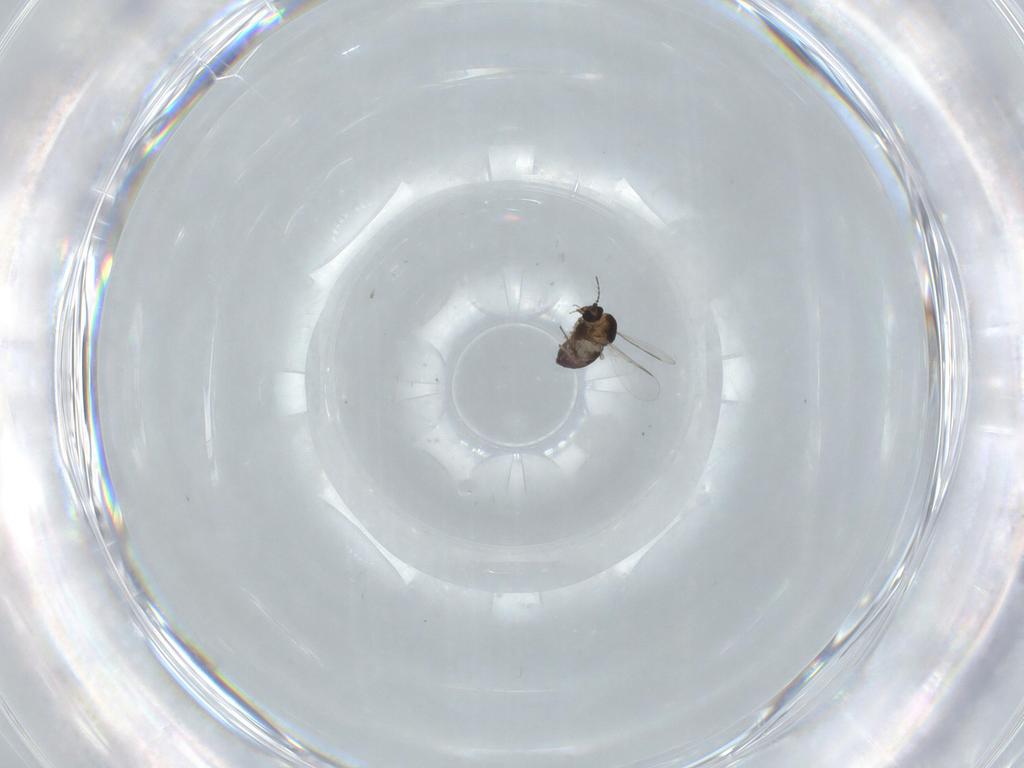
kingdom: Animalia
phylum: Arthropoda
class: Insecta
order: Diptera
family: Chironomidae
